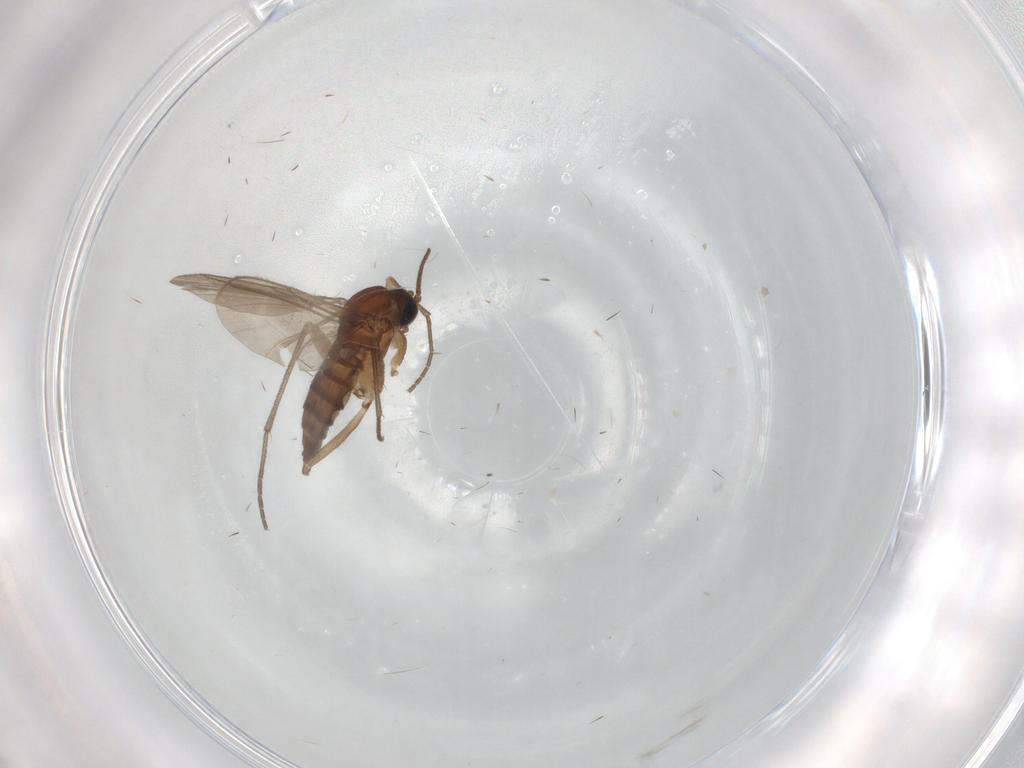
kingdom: Animalia
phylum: Arthropoda
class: Insecta
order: Diptera
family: Sciaridae
